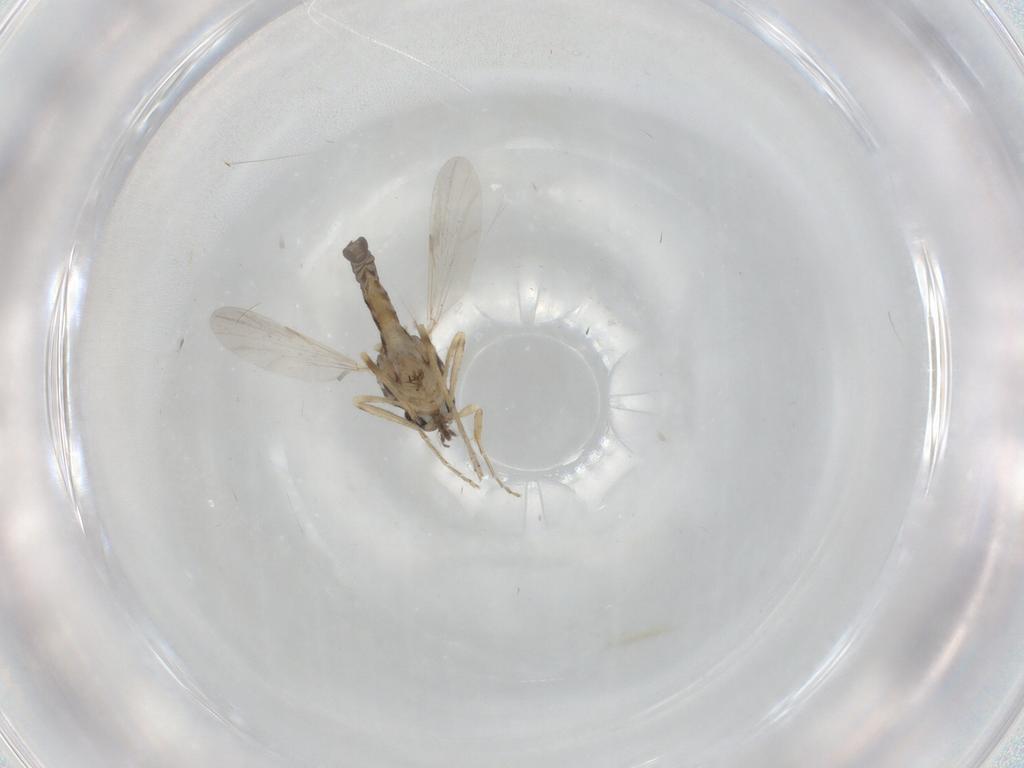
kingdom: Animalia
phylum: Arthropoda
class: Insecta
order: Diptera
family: Ceratopogonidae
